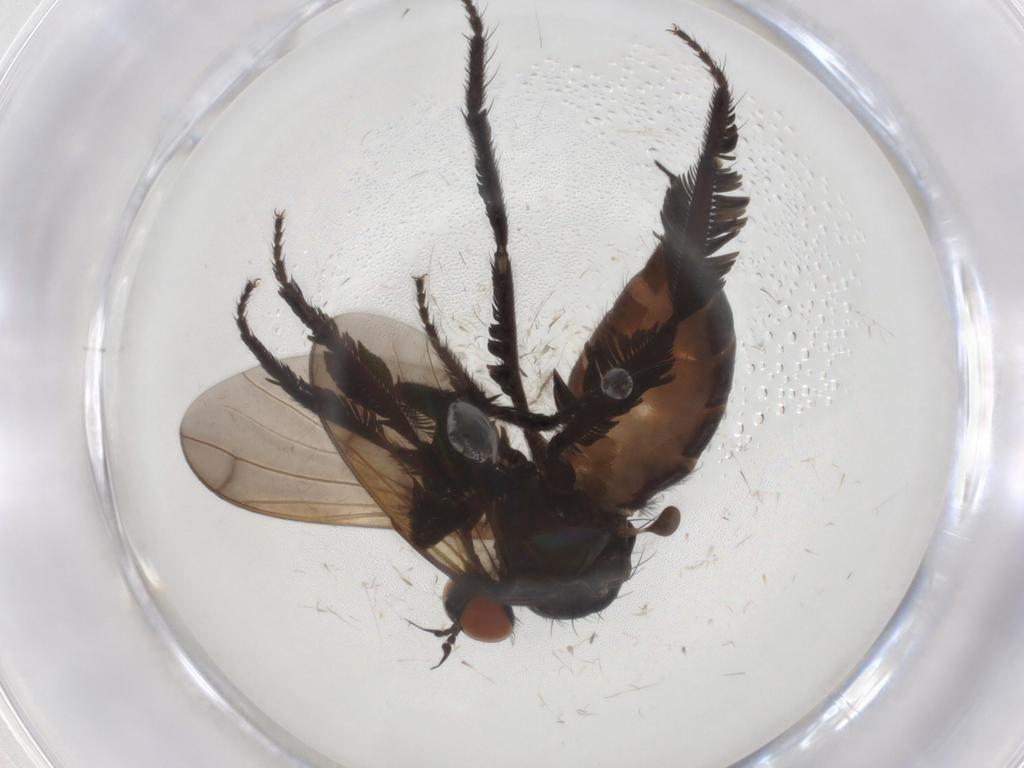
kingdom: Animalia
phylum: Arthropoda
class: Insecta
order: Diptera
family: Empididae
